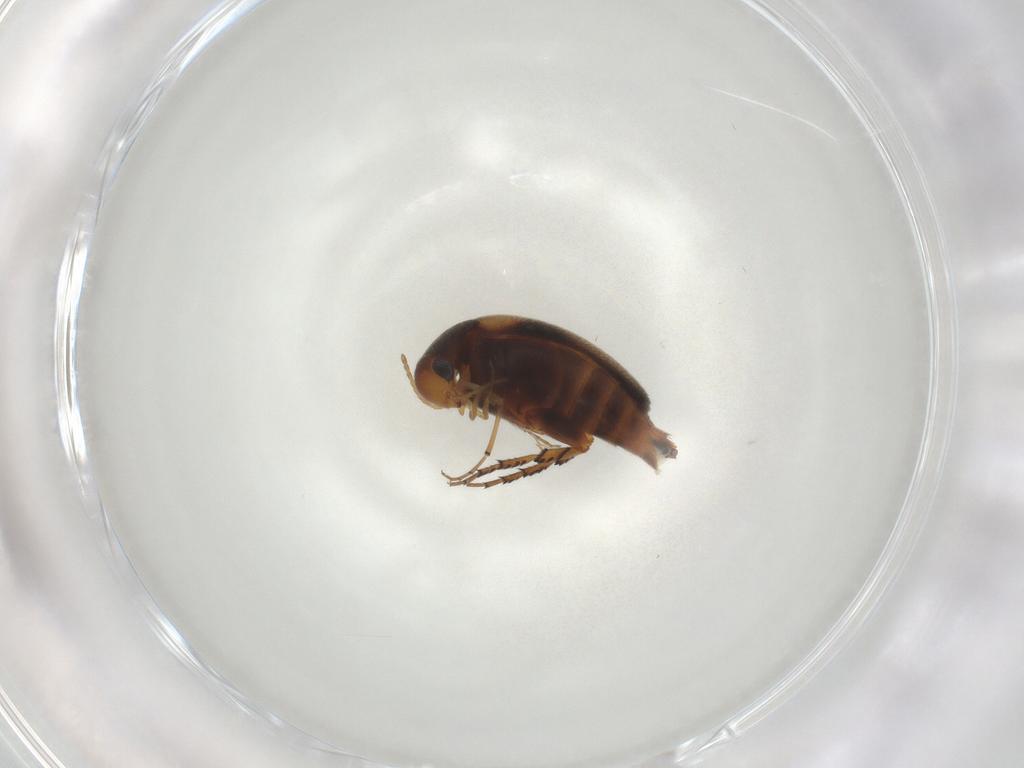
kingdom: Animalia
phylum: Arthropoda
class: Insecta
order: Coleoptera
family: Mordellidae
